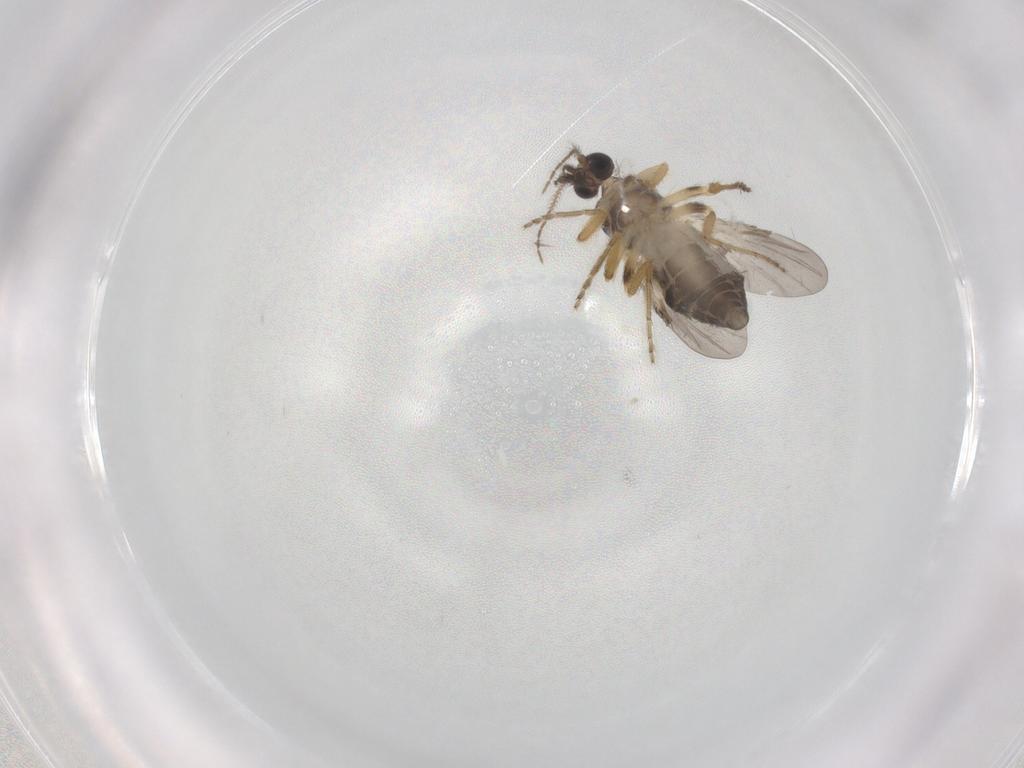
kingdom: Animalia
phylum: Arthropoda
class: Insecta
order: Diptera
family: Ceratopogonidae
